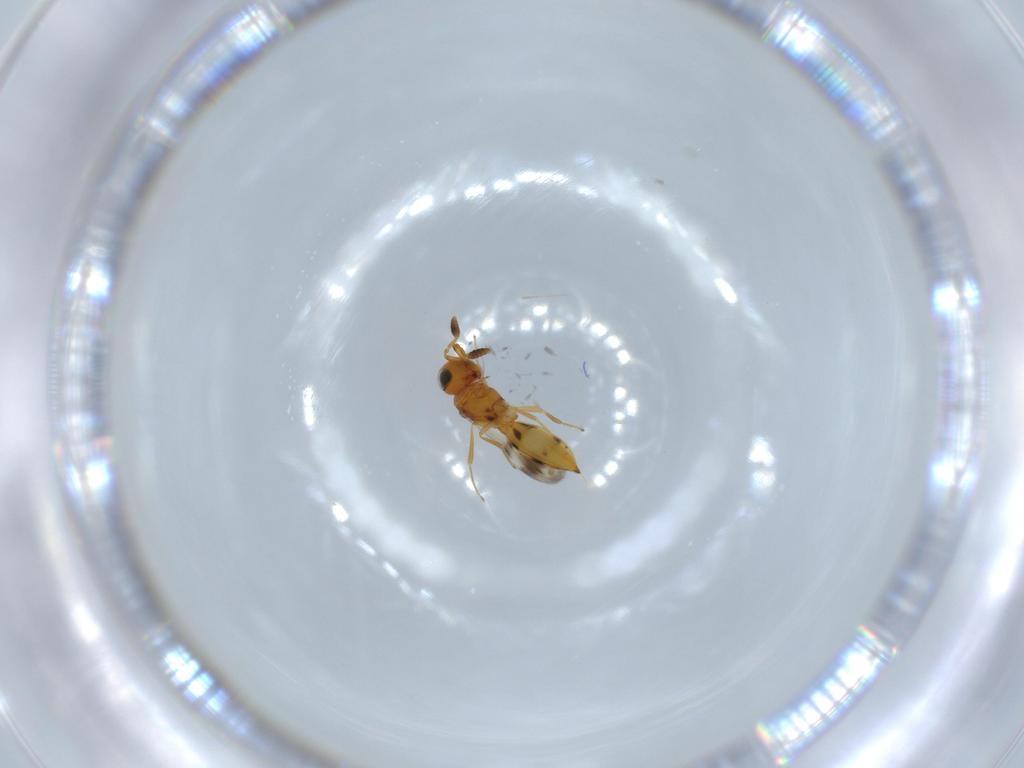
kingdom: Animalia
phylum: Arthropoda
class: Insecta
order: Hymenoptera
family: Scelionidae
